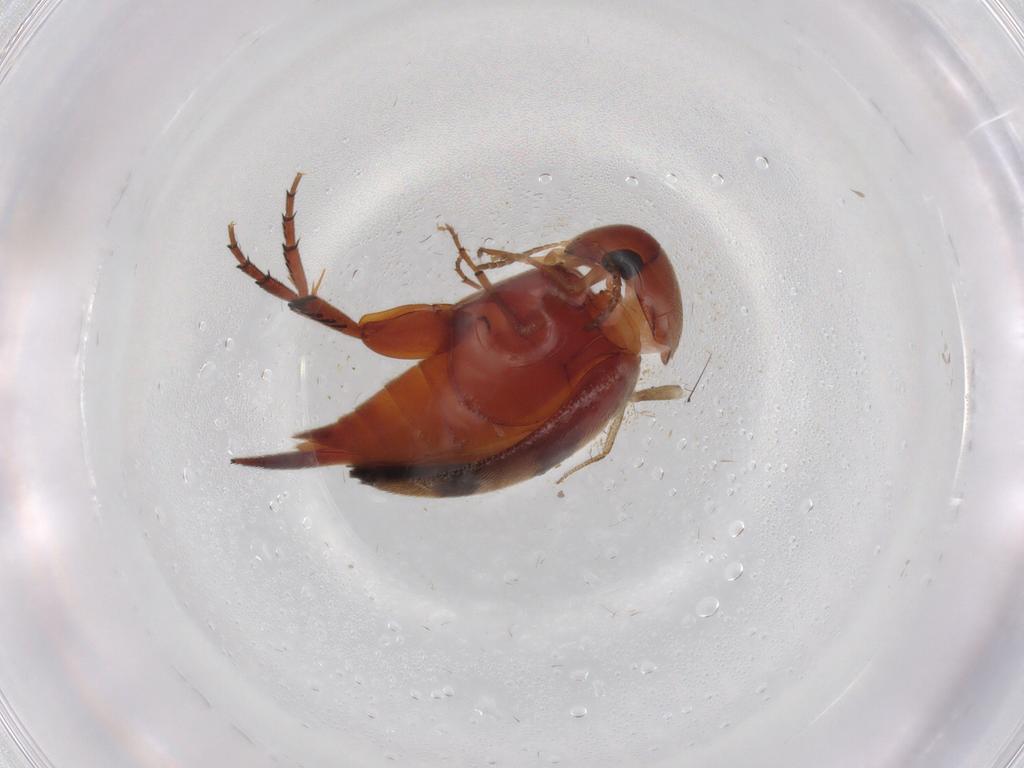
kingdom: Animalia
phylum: Arthropoda
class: Insecta
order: Coleoptera
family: Mordellidae
